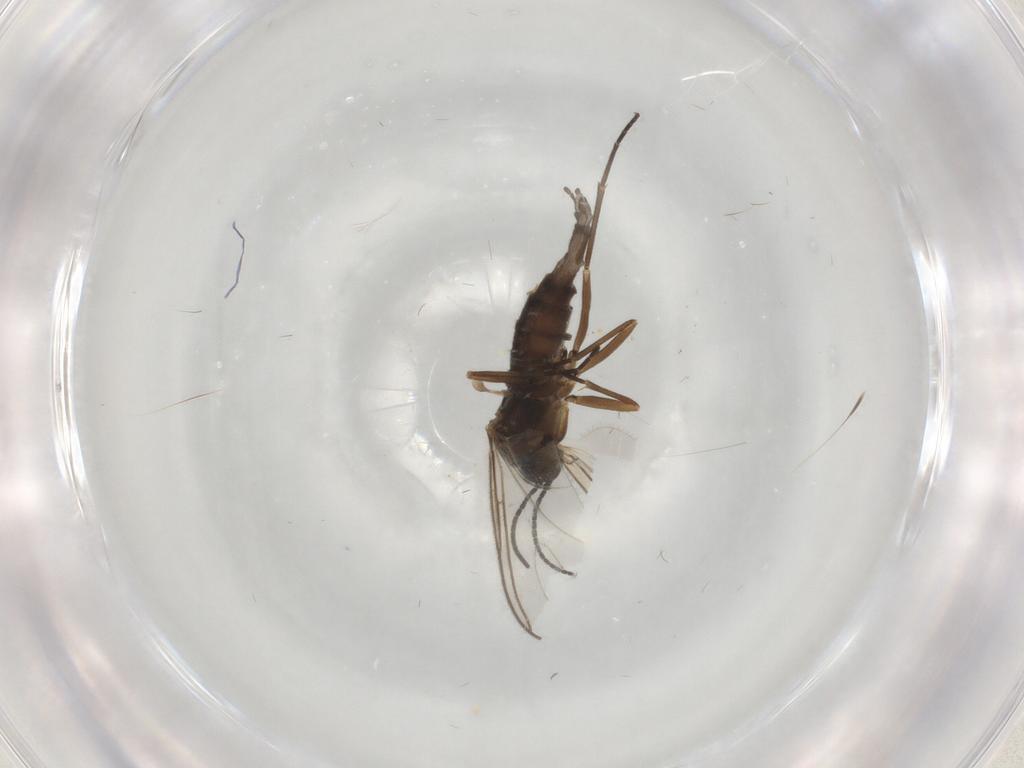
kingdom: Animalia
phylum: Arthropoda
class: Insecta
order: Diptera
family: Sciaridae
